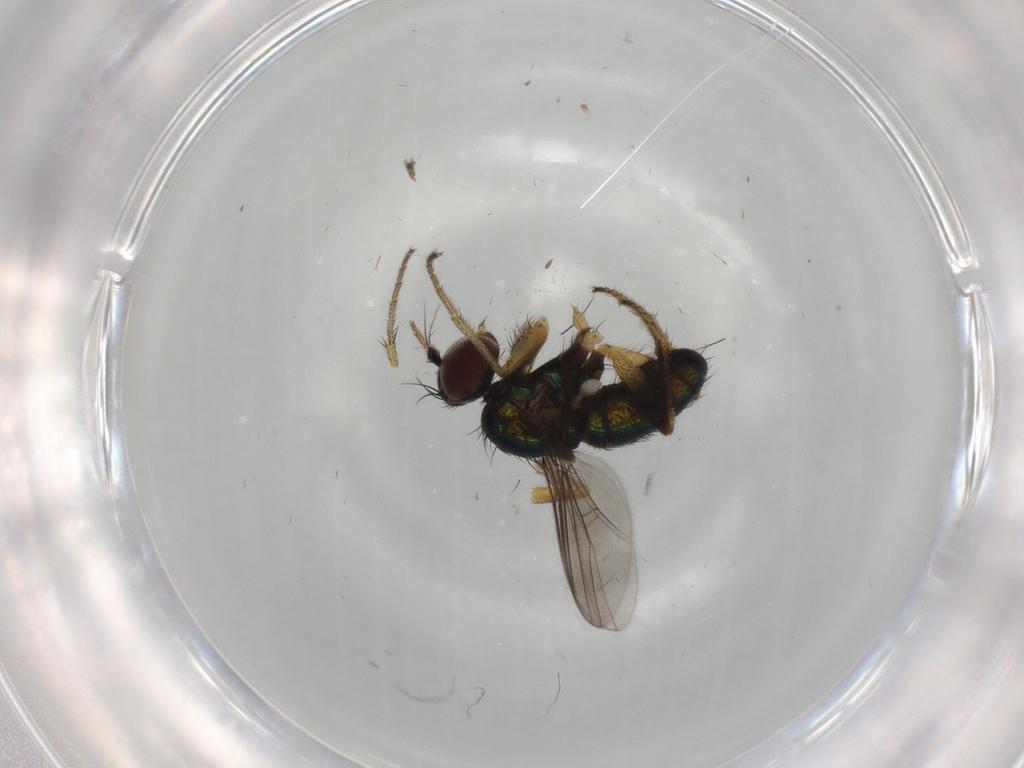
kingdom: Animalia
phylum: Arthropoda
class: Insecta
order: Diptera
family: Dolichopodidae
